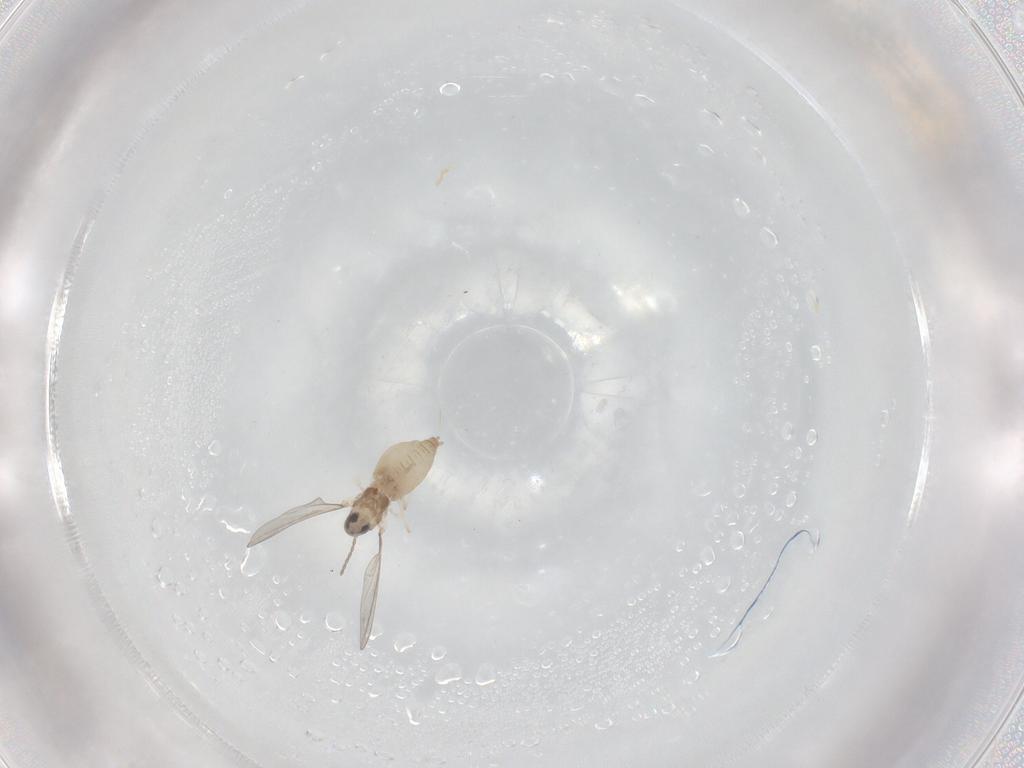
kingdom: Animalia
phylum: Arthropoda
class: Insecta
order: Diptera
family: Cecidomyiidae
